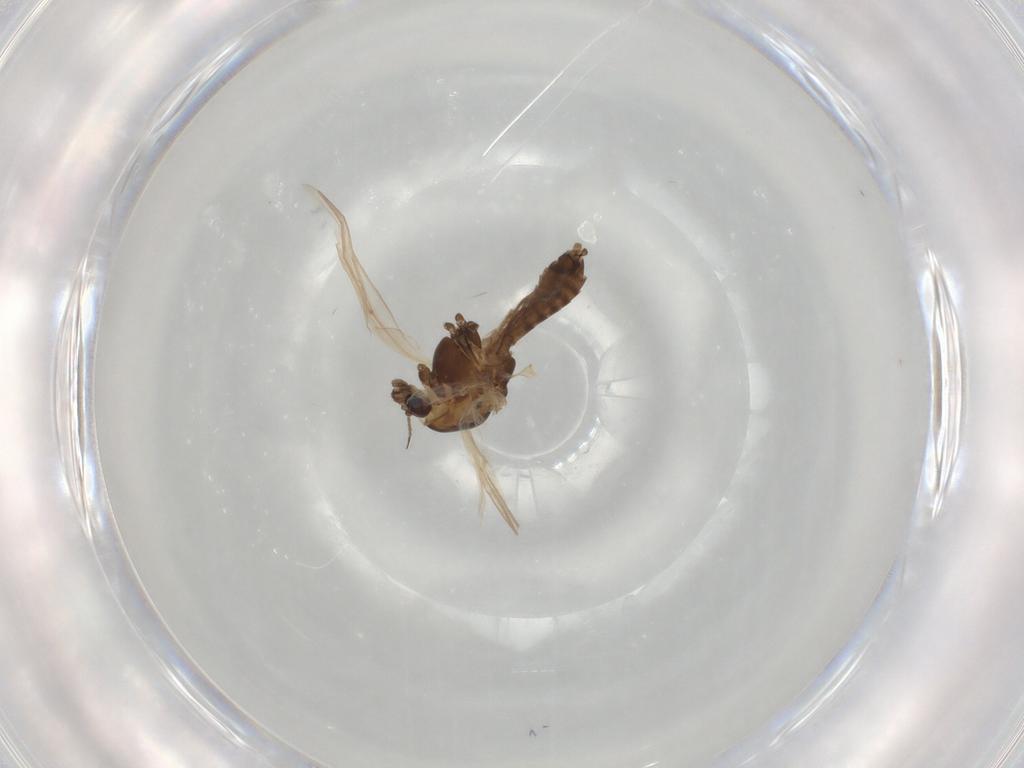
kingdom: Animalia
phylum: Arthropoda
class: Insecta
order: Diptera
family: Chironomidae
